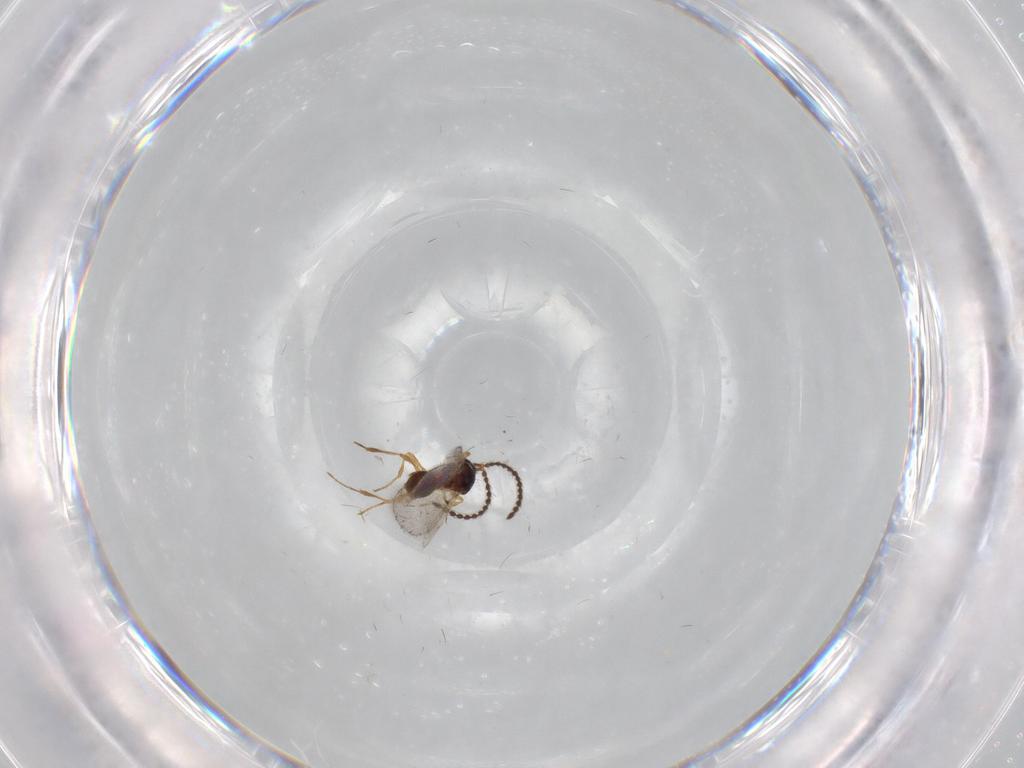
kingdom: Animalia
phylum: Arthropoda
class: Insecta
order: Hymenoptera
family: Diapriidae
